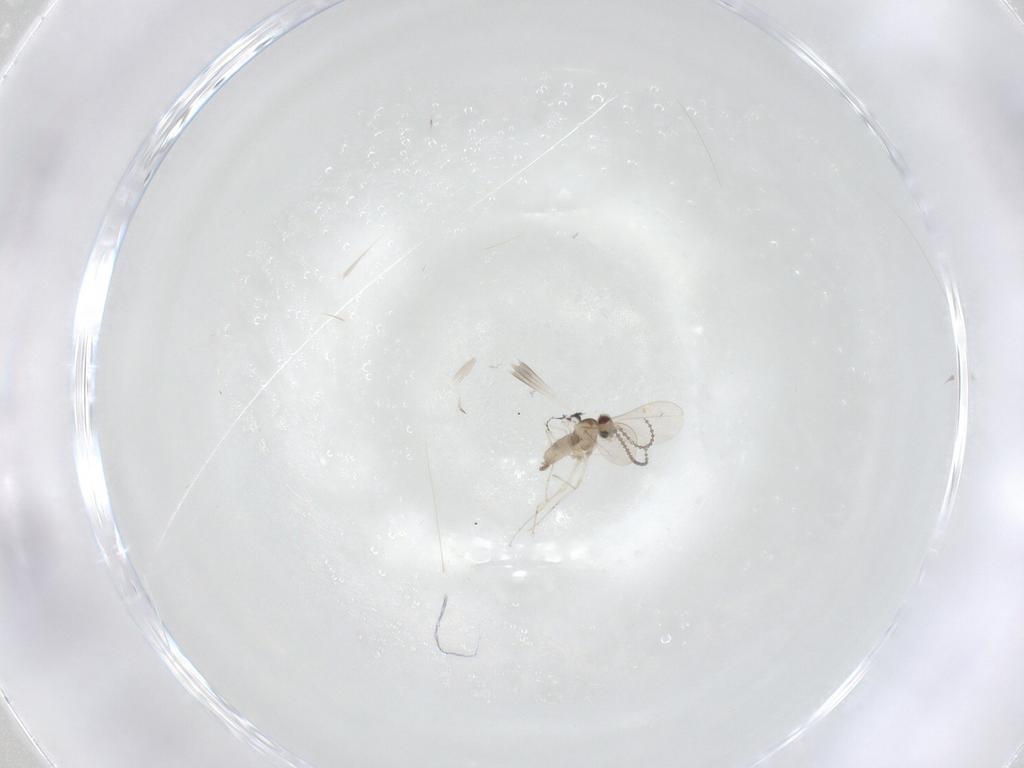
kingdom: Animalia
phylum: Arthropoda
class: Insecta
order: Diptera
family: Cecidomyiidae
